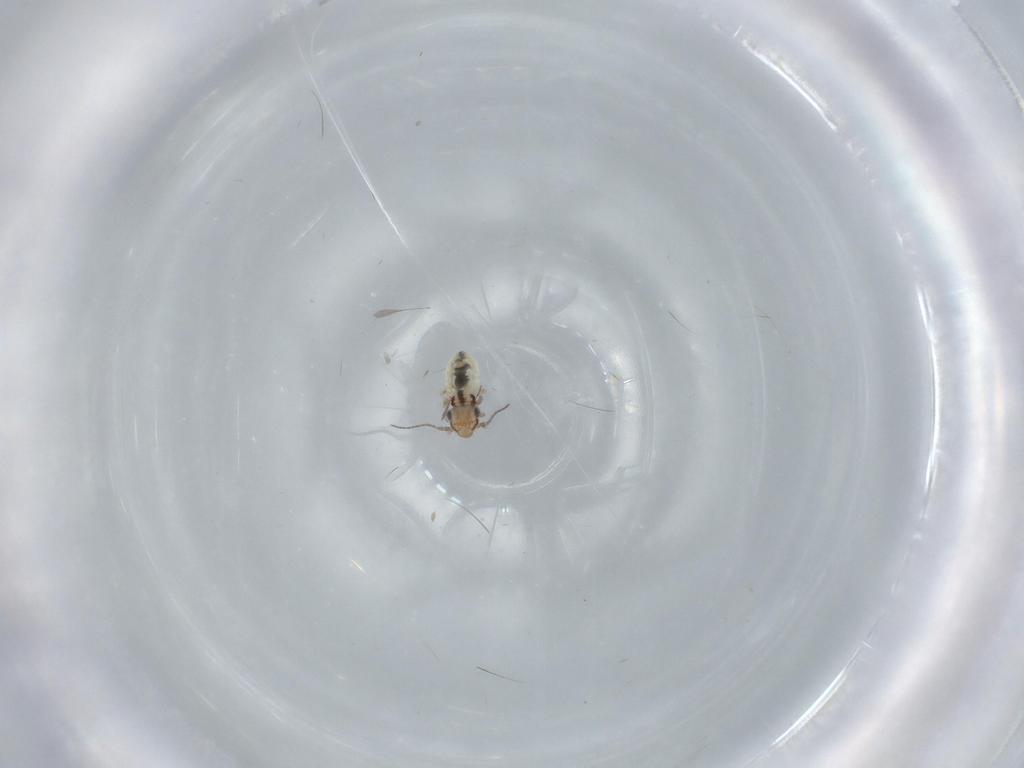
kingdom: Animalia
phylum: Arthropoda
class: Insecta
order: Psocodea
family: Lepidopsocidae
